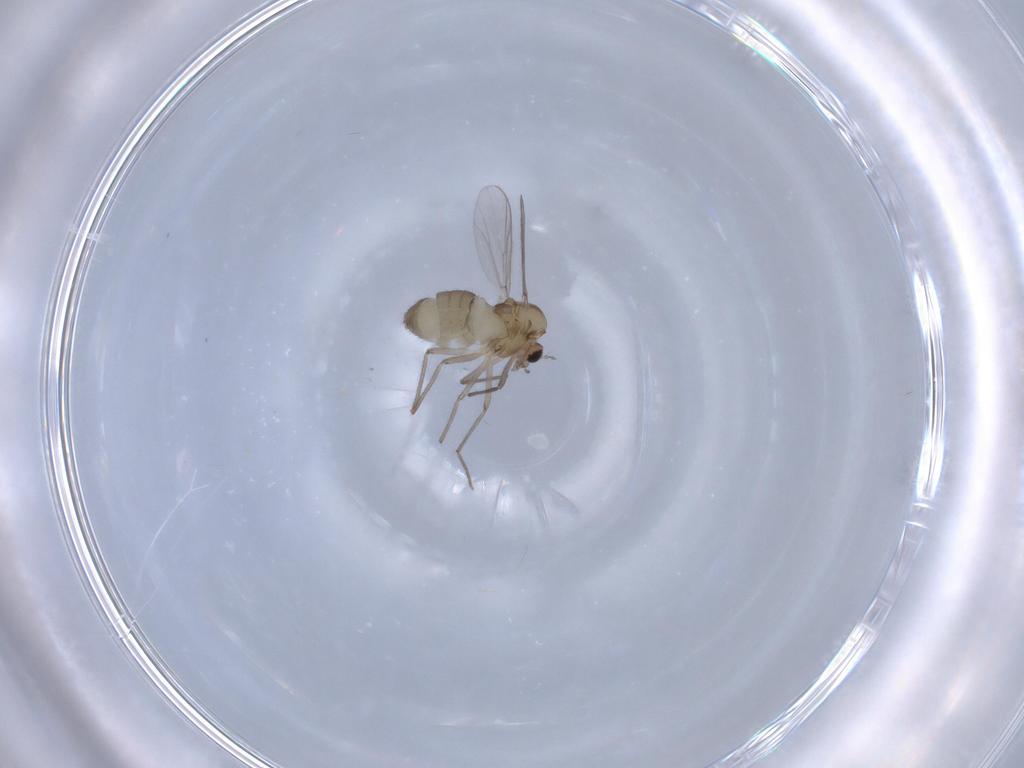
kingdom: Animalia
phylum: Arthropoda
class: Insecta
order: Diptera
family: Chironomidae
